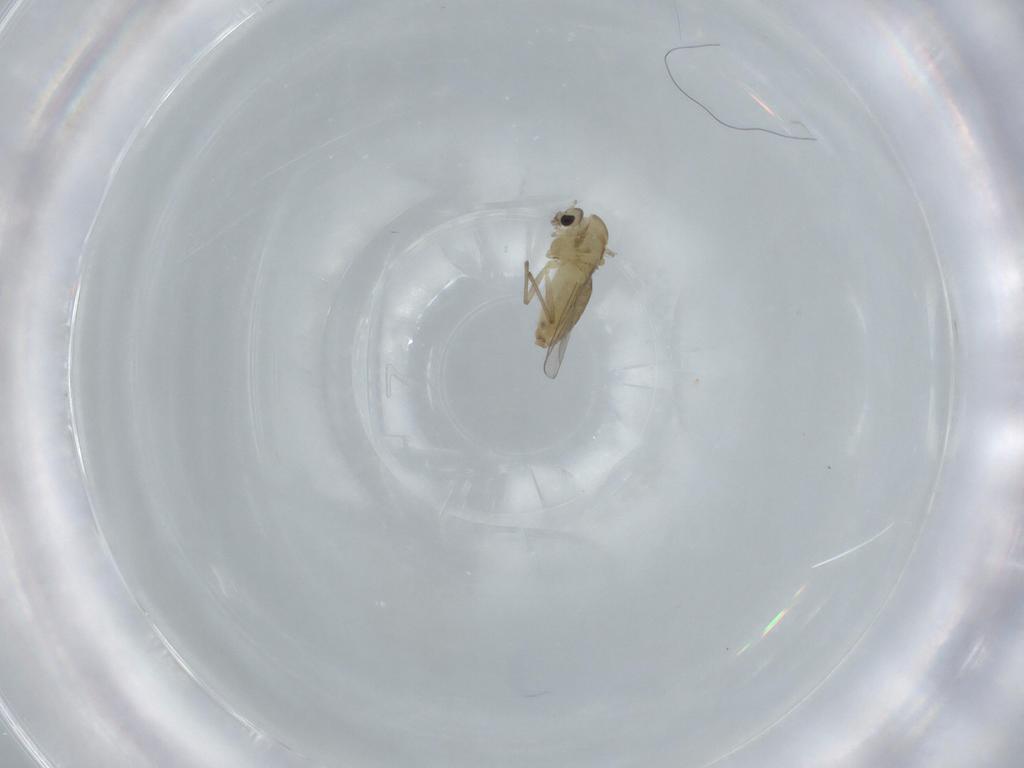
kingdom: Animalia
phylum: Arthropoda
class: Insecta
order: Diptera
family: Chironomidae
